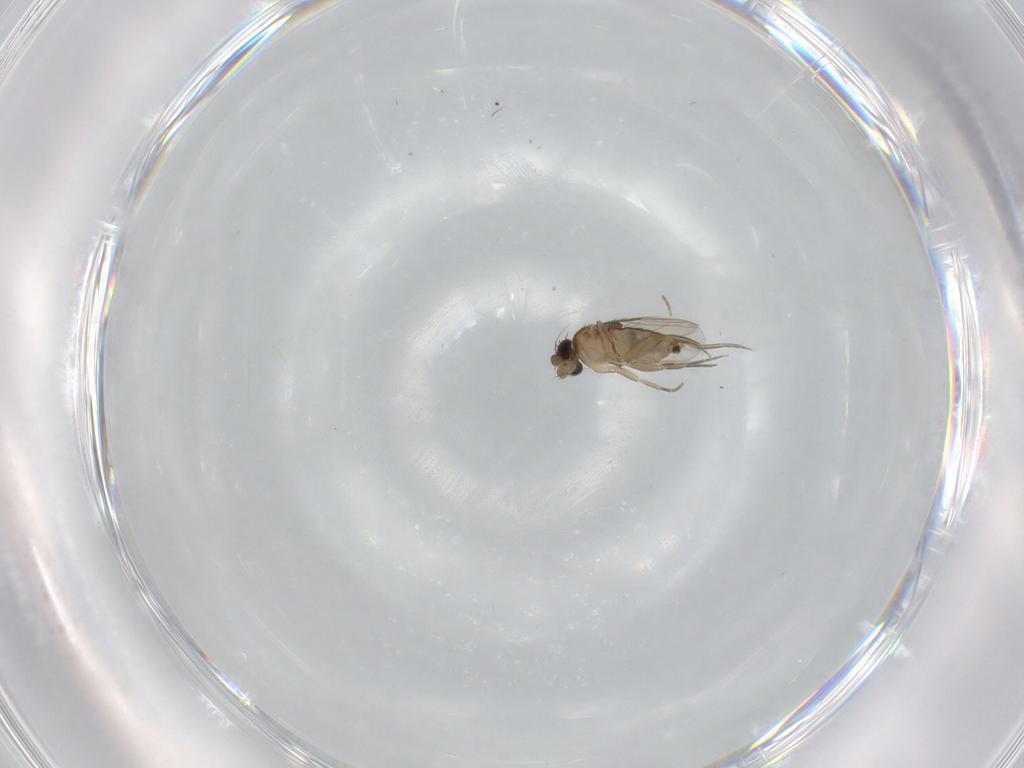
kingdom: Animalia
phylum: Arthropoda
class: Insecta
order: Diptera
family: Phoridae
